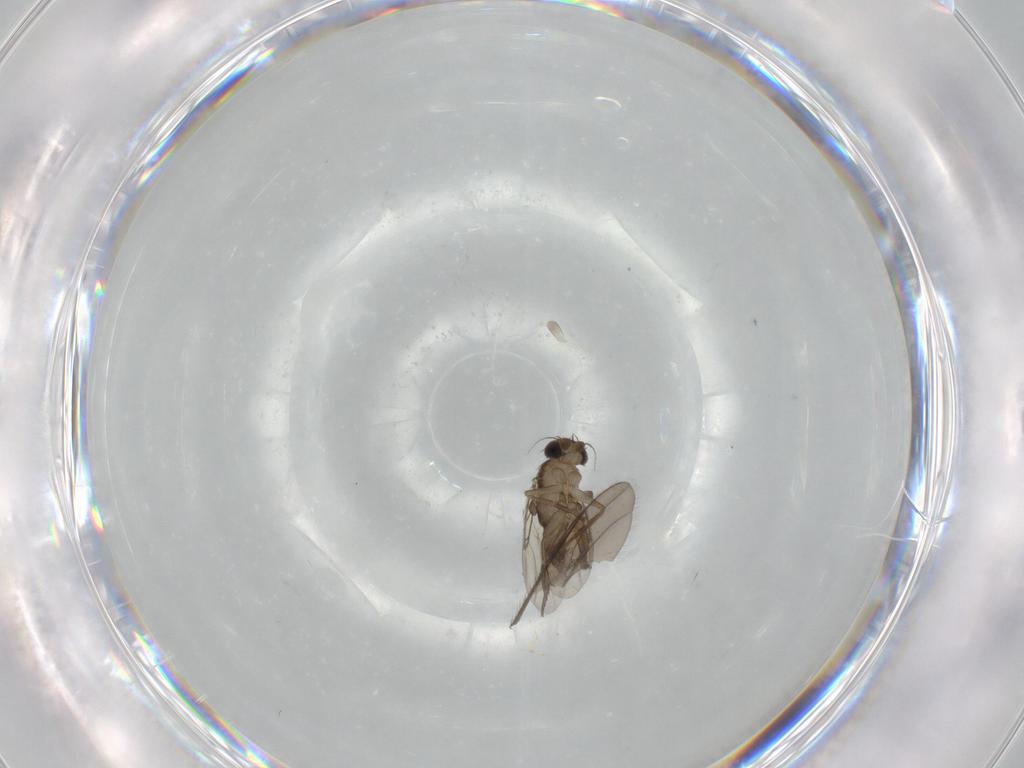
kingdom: Animalia
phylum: Arthropoda
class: Insecta
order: Diptera
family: Phoridae
